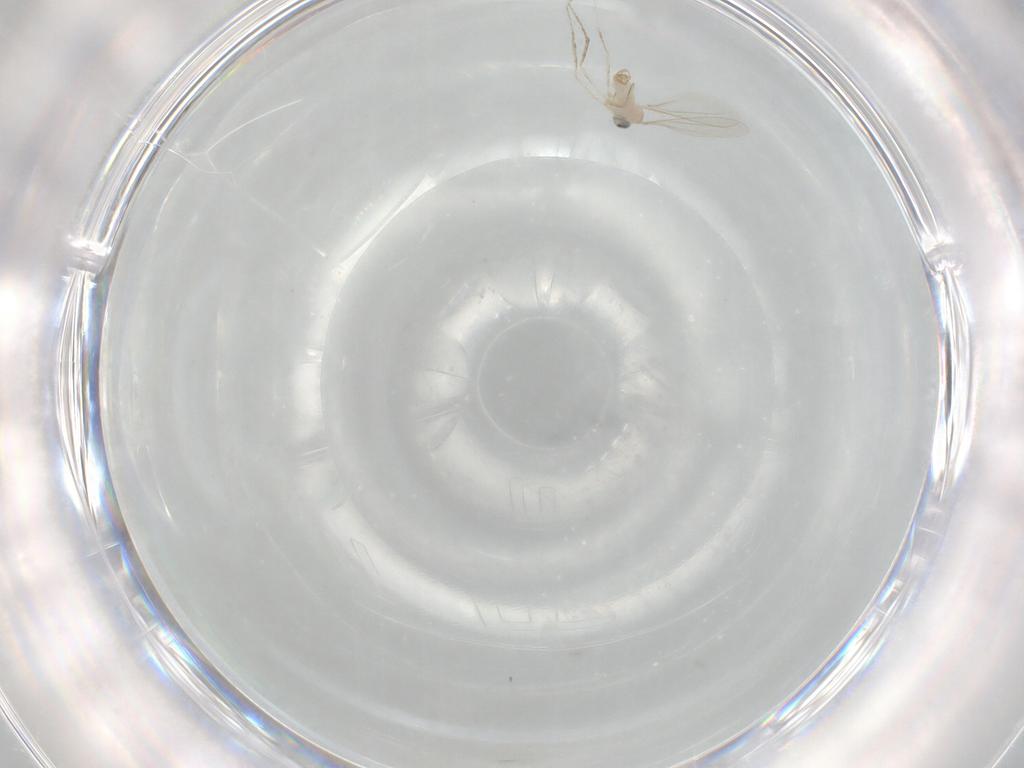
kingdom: Animalia
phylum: Arthropoda
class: Insecta
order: Diptera
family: Cecidomyiidae
